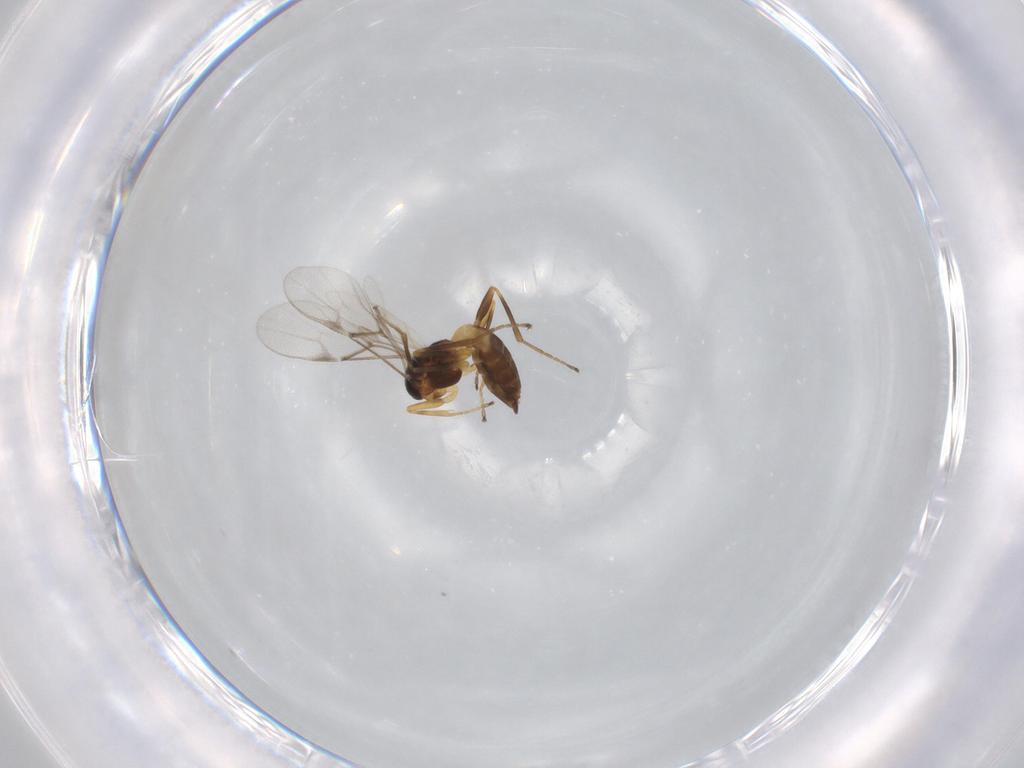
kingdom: Animalia
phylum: Arthropoda
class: Insecta
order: Hymenoptera
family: Braconidae
